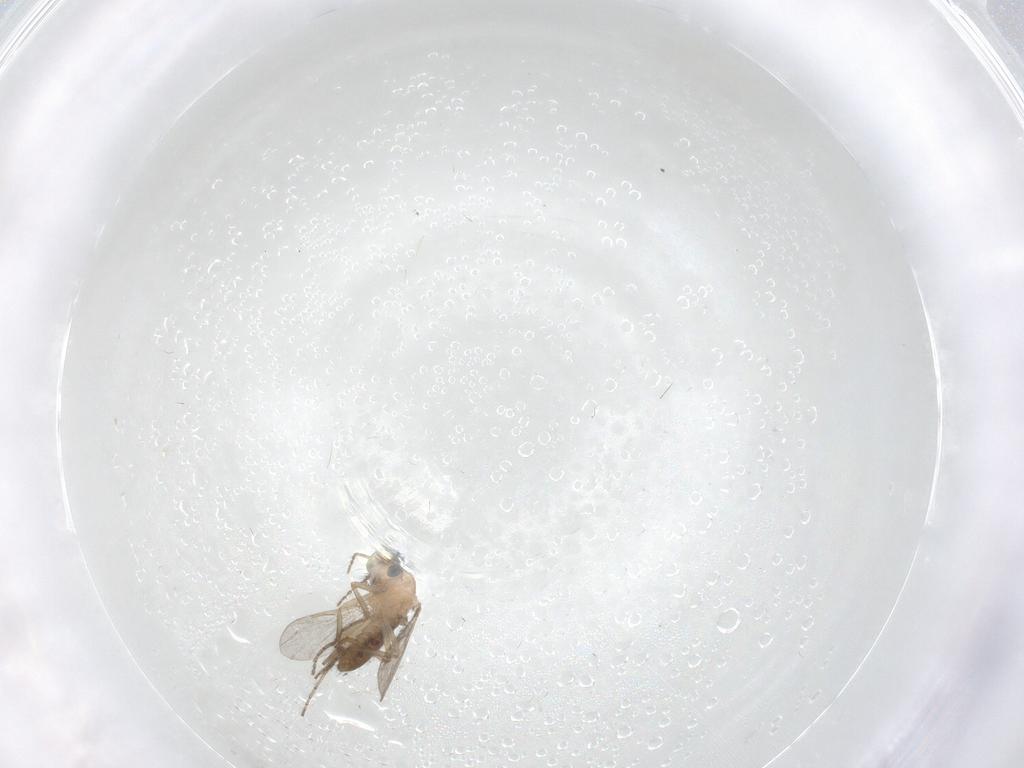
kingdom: Animalia
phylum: Arthropoda
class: Insecta
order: Diptera
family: Ceratopogonidae
